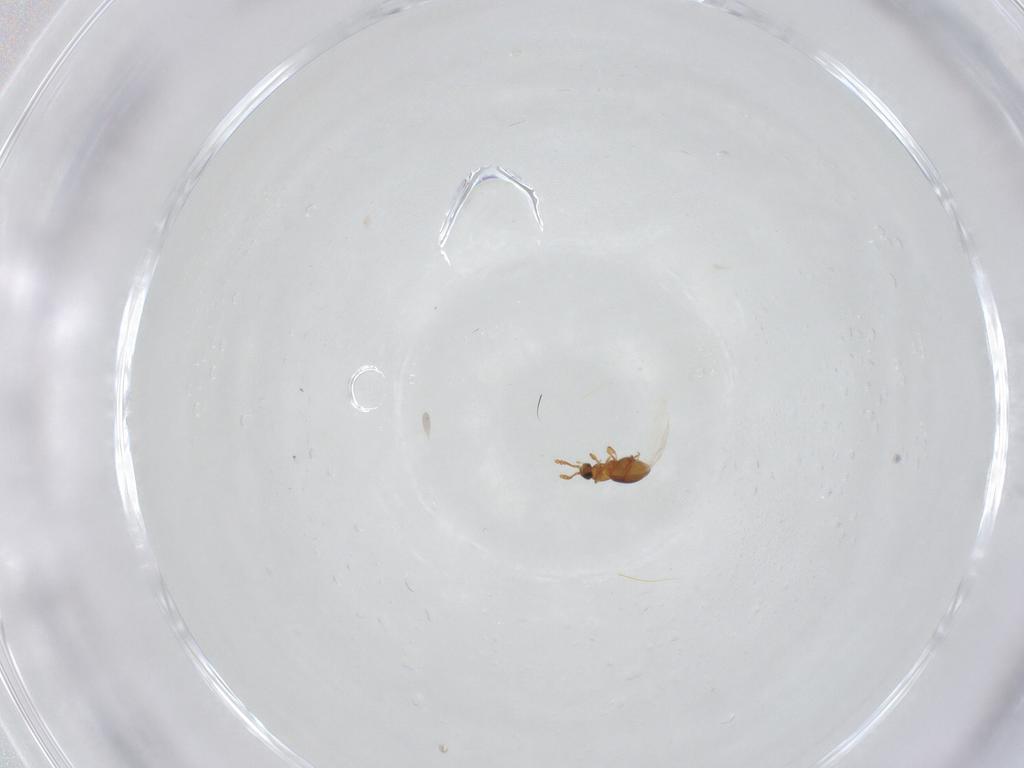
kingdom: Animalia
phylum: Arthropoda
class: Insecta
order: Coleoptera
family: Staphylinidae
